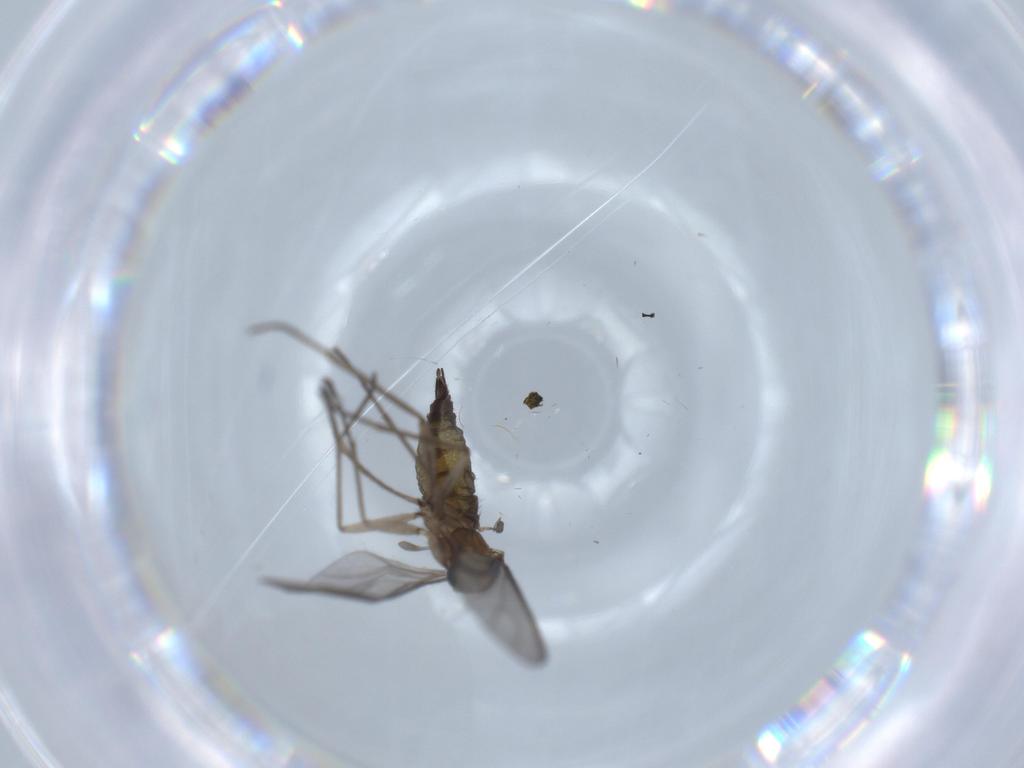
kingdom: Animalia
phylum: Arthropoda
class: Insecta
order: Diptera
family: Sciaridae
